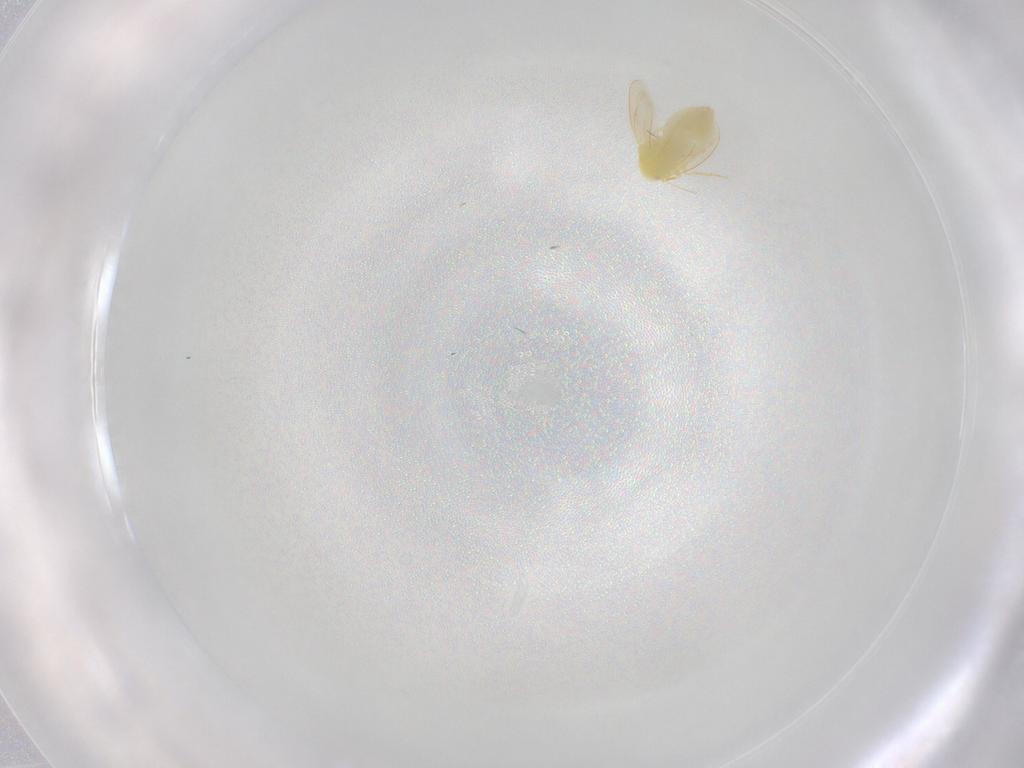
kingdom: Animalia
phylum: Arthropoda
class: Insecta
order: Hemiptera
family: Aleyrodidae
